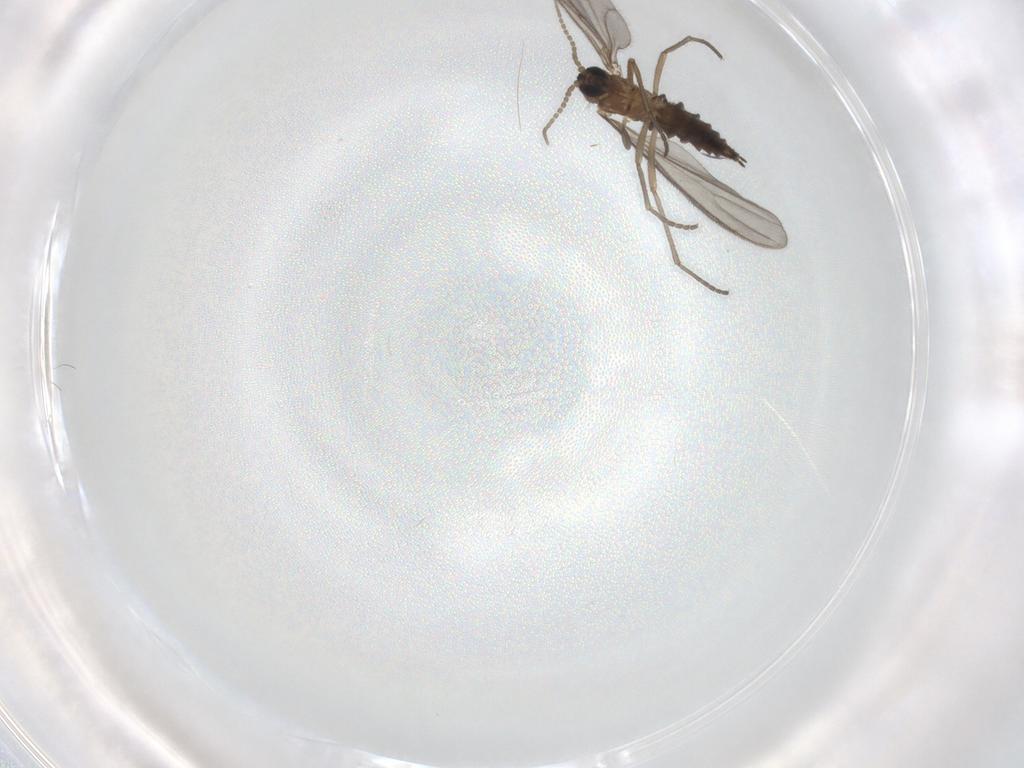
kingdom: Animalia
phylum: Arthropoda
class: Insecta
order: Diptera
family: Sciaridae
